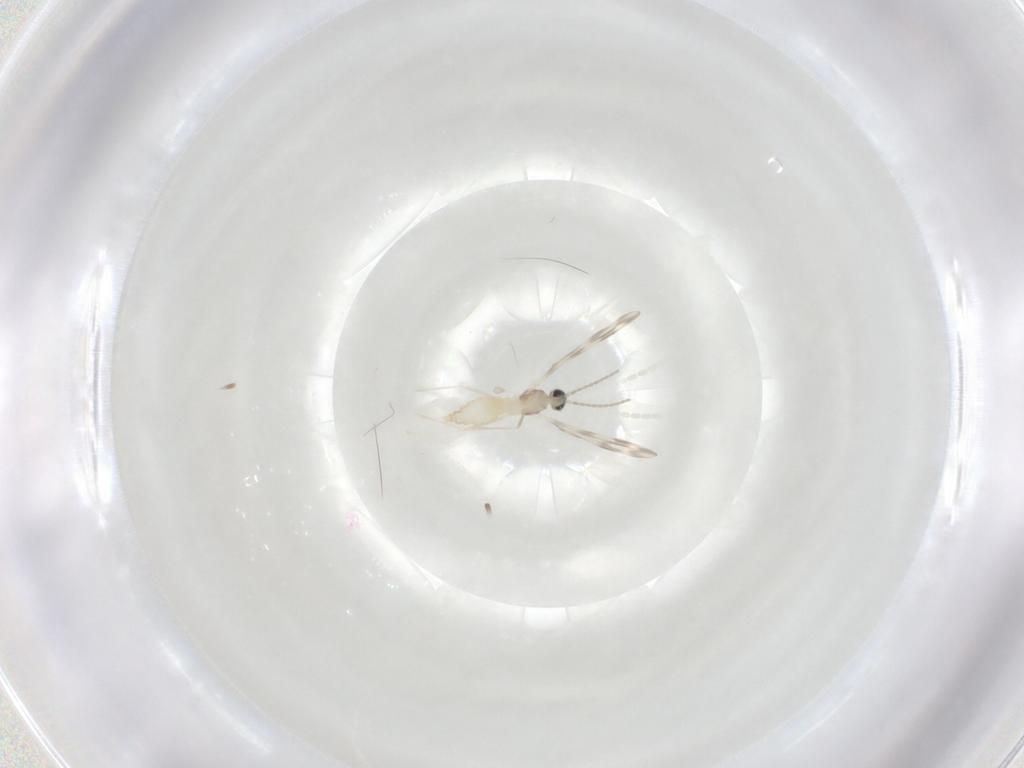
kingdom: Animalia
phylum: Arthropoda
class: Insecta
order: Diptera
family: Cecidomyiidae
